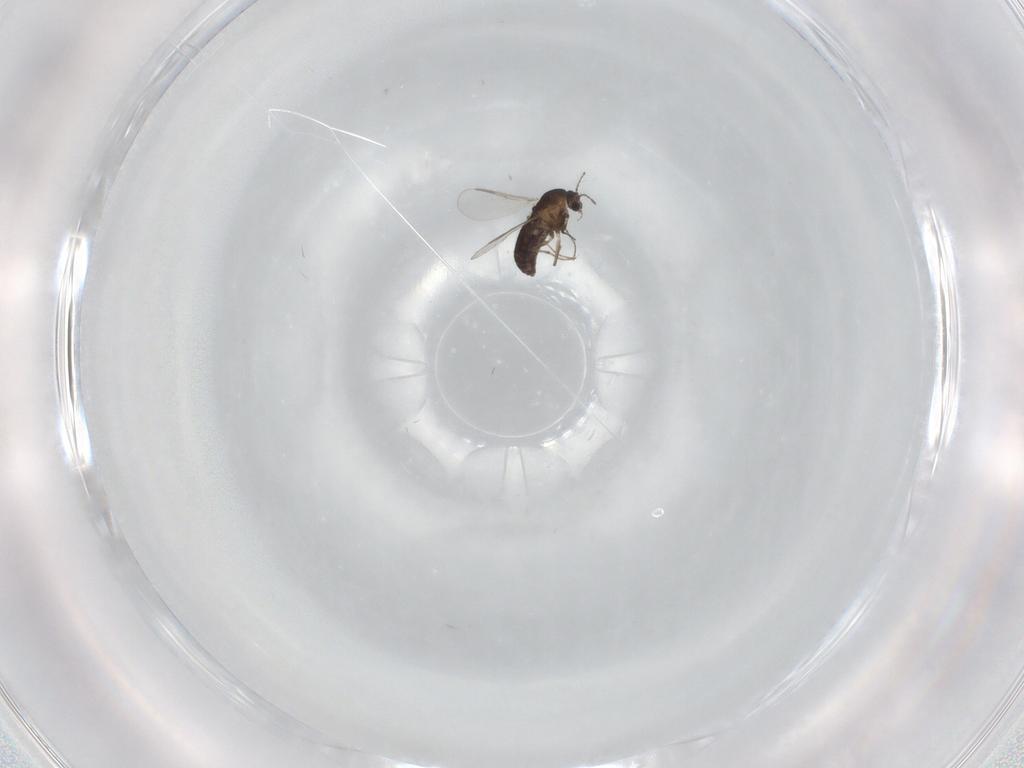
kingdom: Animalia
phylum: Arthropoda
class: Insecta
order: Diptera
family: Chironomidae
